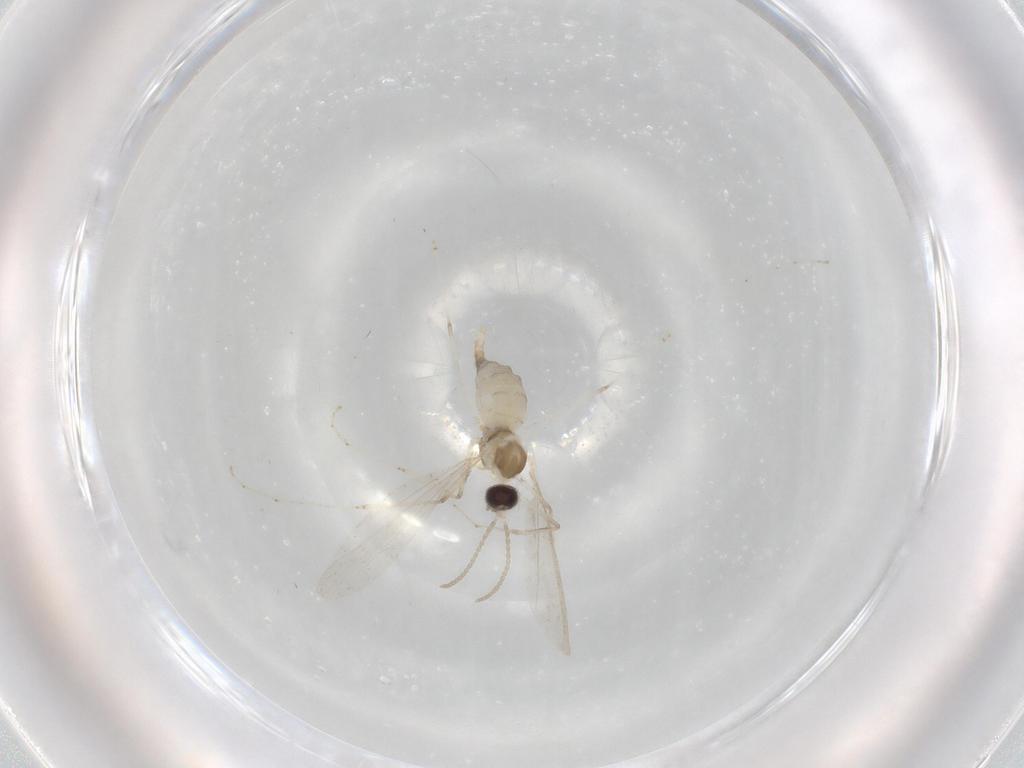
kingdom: Animalia
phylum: Arthropoda
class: Insecta
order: Diptera
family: Cecidomyiidae
